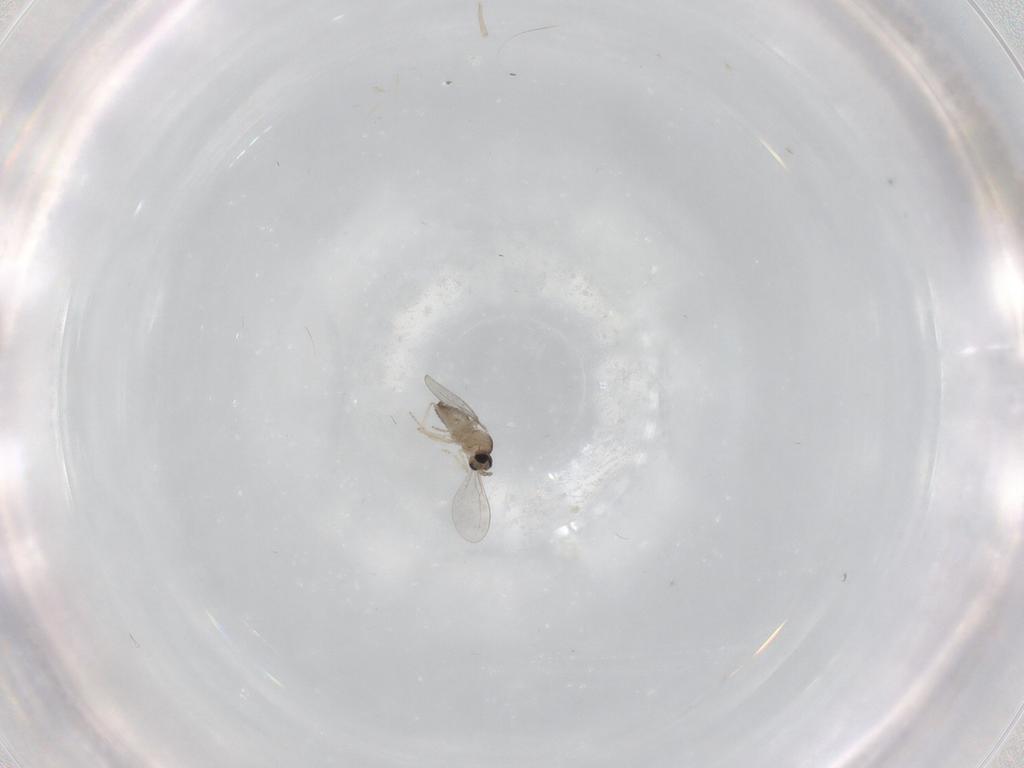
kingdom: Animalia
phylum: Arthropoda
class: Insecta
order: Diptera
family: Cecidomyiidae
